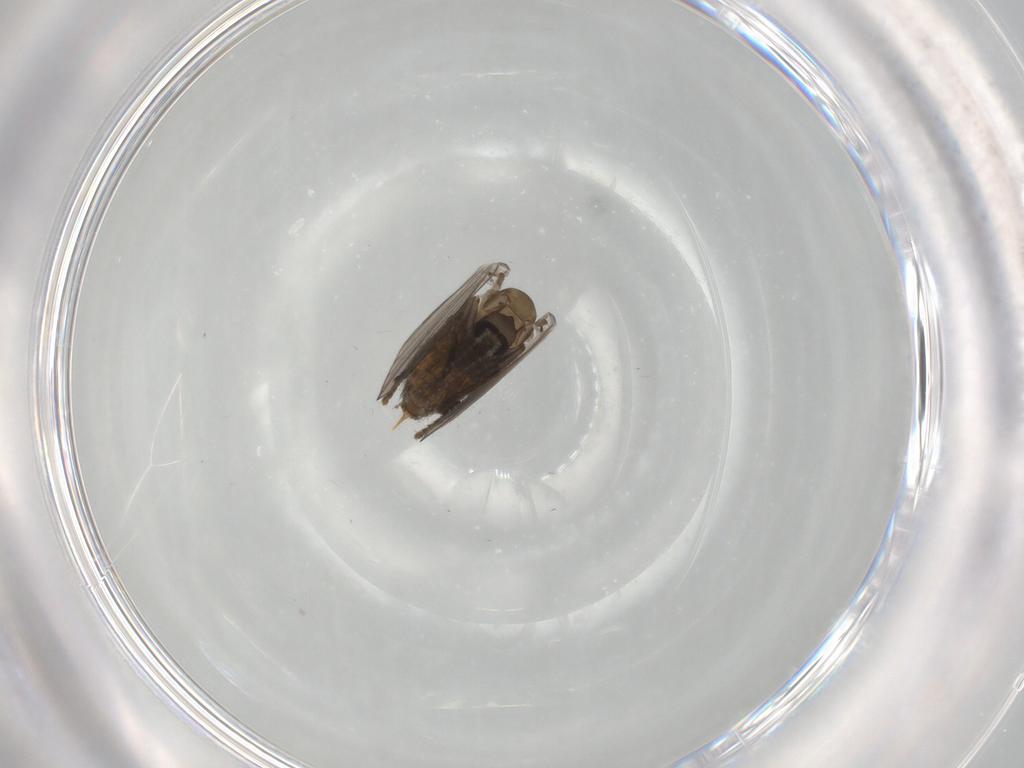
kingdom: Animalia
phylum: Arthropoda
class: Insecta
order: Diptera
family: Psychodidae
